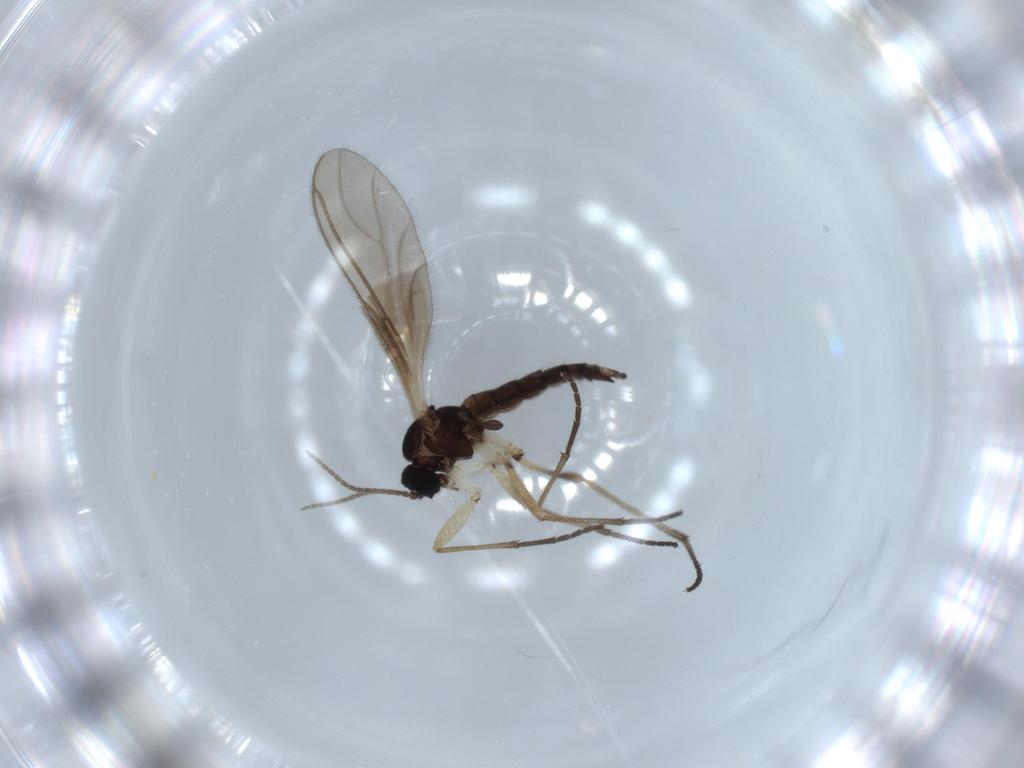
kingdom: Animalia
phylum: Arthropoda
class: Insecta
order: Diptera
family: Sciaridae
